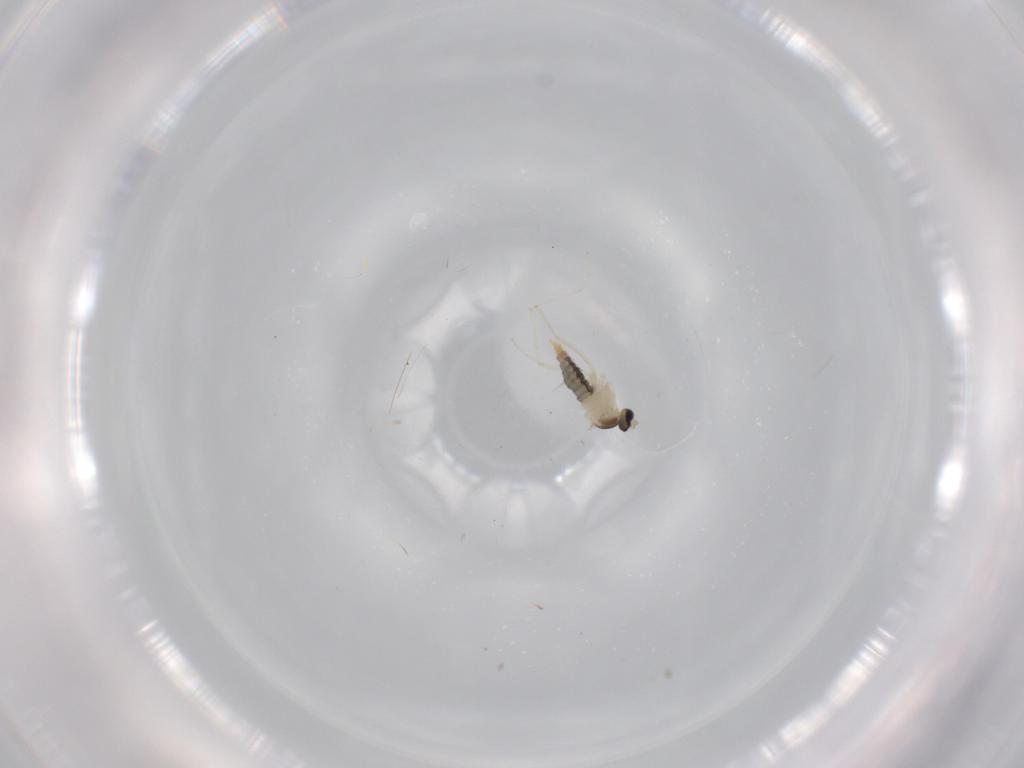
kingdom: Animalia
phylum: Arthropoda
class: Insecta
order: Diptera
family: Dolichopodidae
